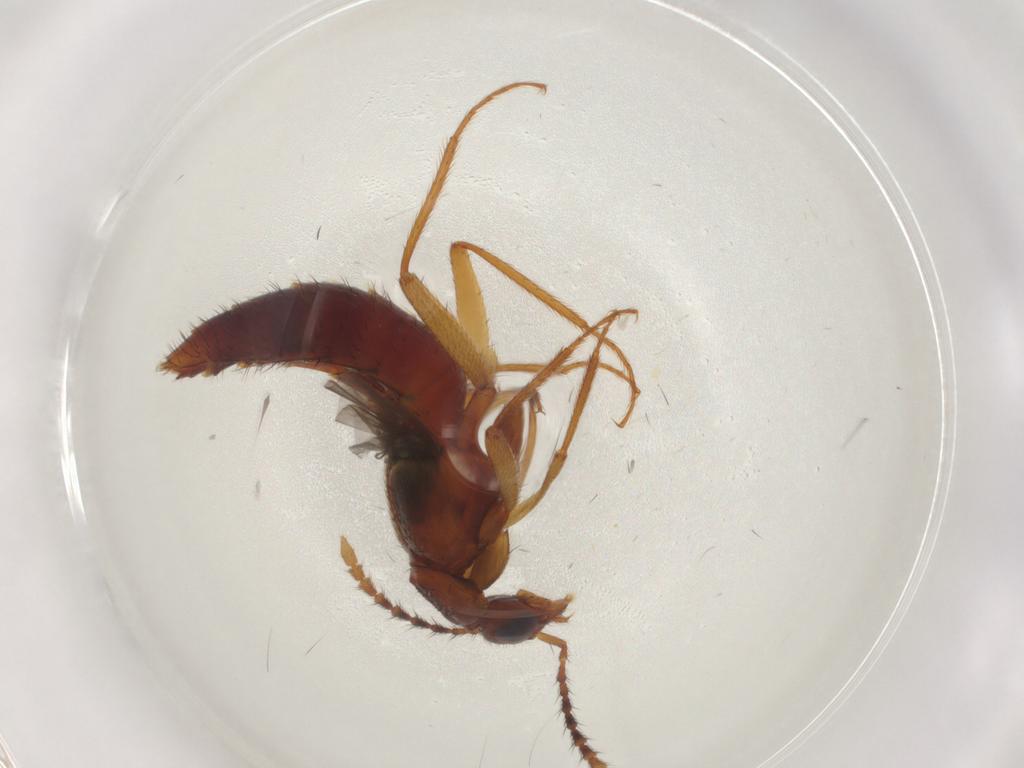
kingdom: Animalia
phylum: Arthropoda
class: Insecta
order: Coleoptera
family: Staphylinidae
